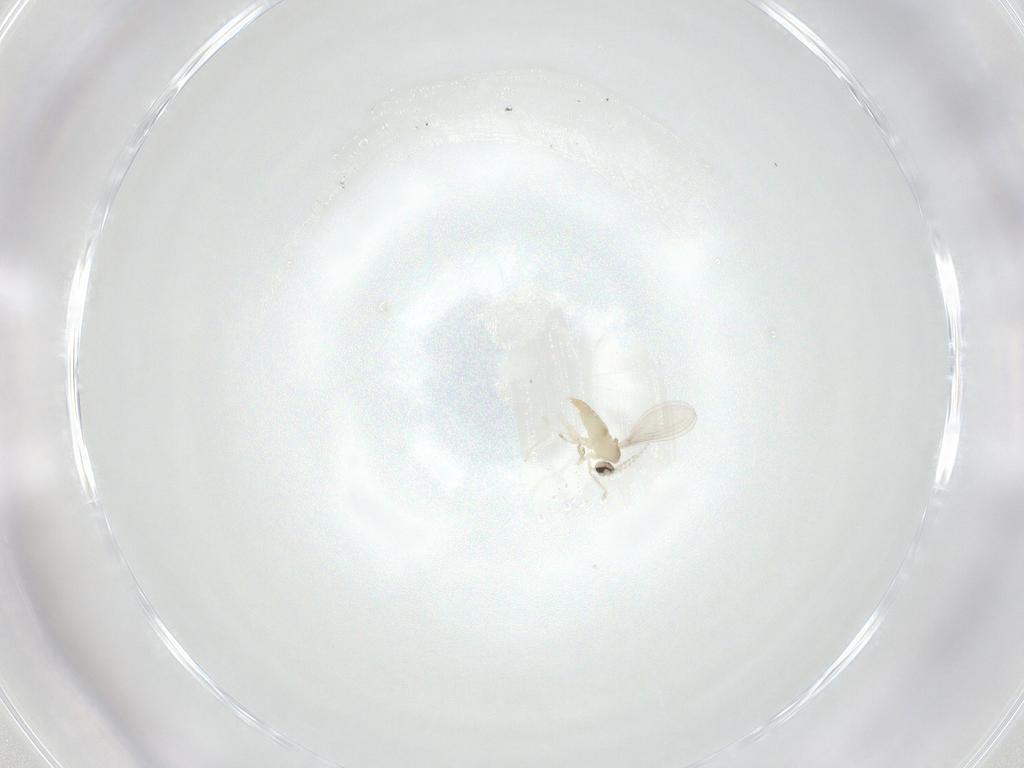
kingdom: Animalia
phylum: Arthropoda
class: Insecta
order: Diptera
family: Cecidomyiidae
